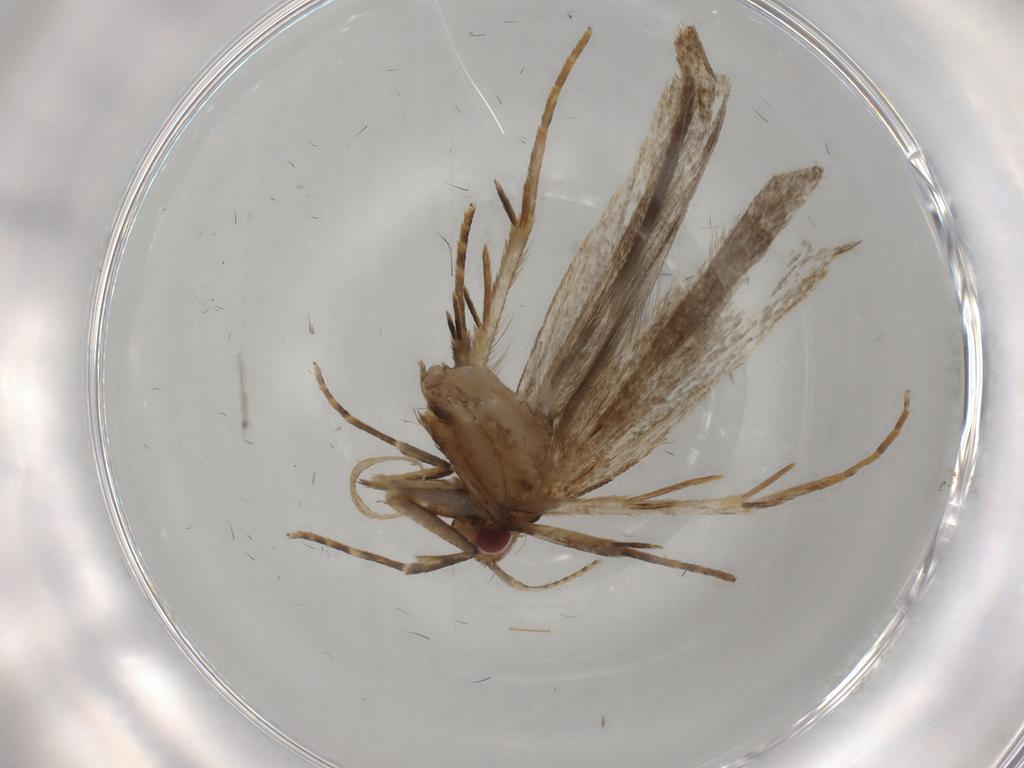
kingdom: Animalia
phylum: Arthropoda
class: Insecta
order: Lepidoptera
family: Gelechiidae
